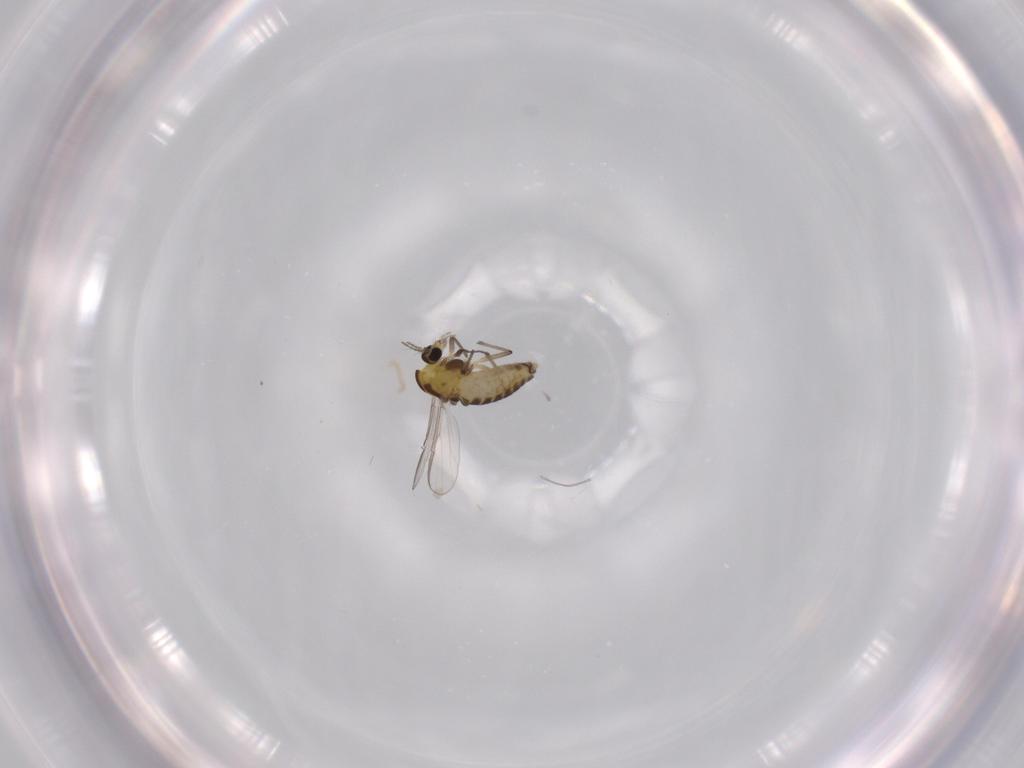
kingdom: Animalia
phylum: Arthropoda
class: Insecta
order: Diptera
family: Chironomidae
